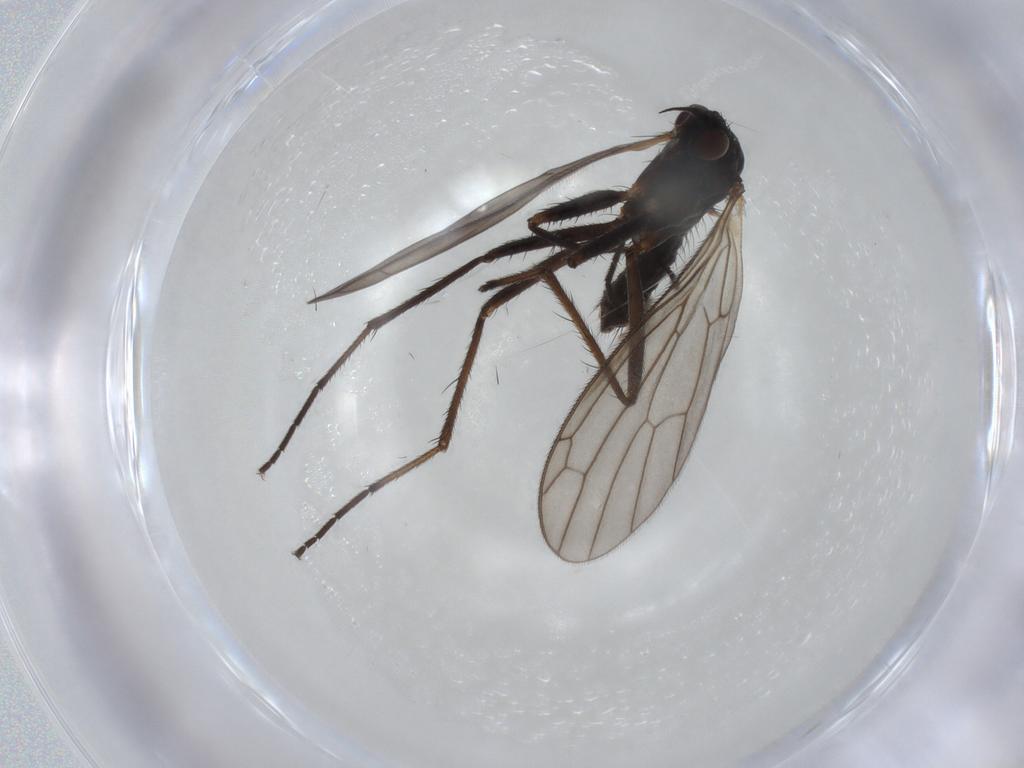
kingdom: Animalia
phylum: Arthropoda
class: Insecta
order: Diptera
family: Empididae
